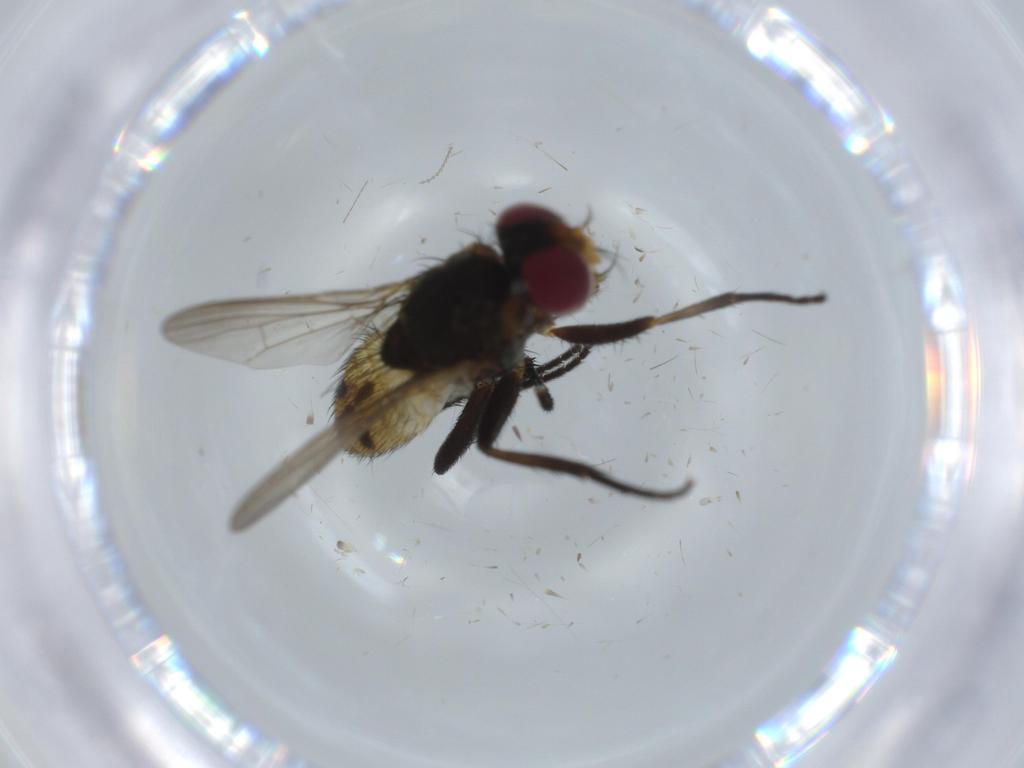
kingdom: Animalia
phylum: Arthropoda
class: Insecta
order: Diptera
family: Anthomyiidae
